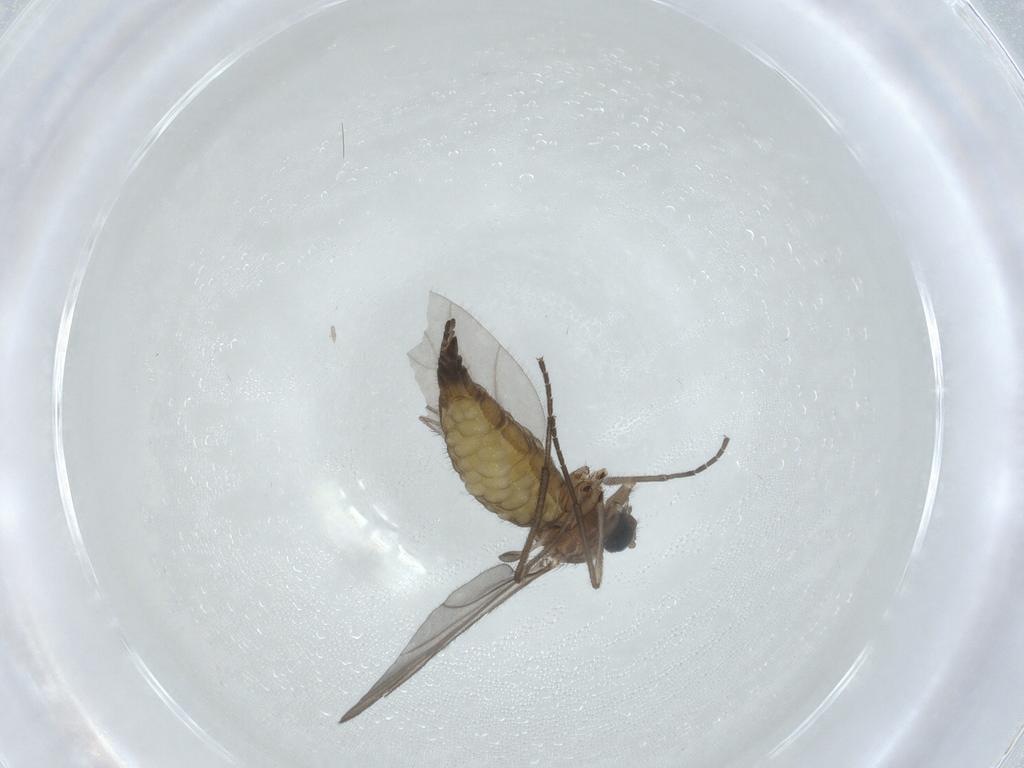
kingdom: Animalia
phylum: Arthropoda
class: Insecta
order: Diptera
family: Sciaridae
